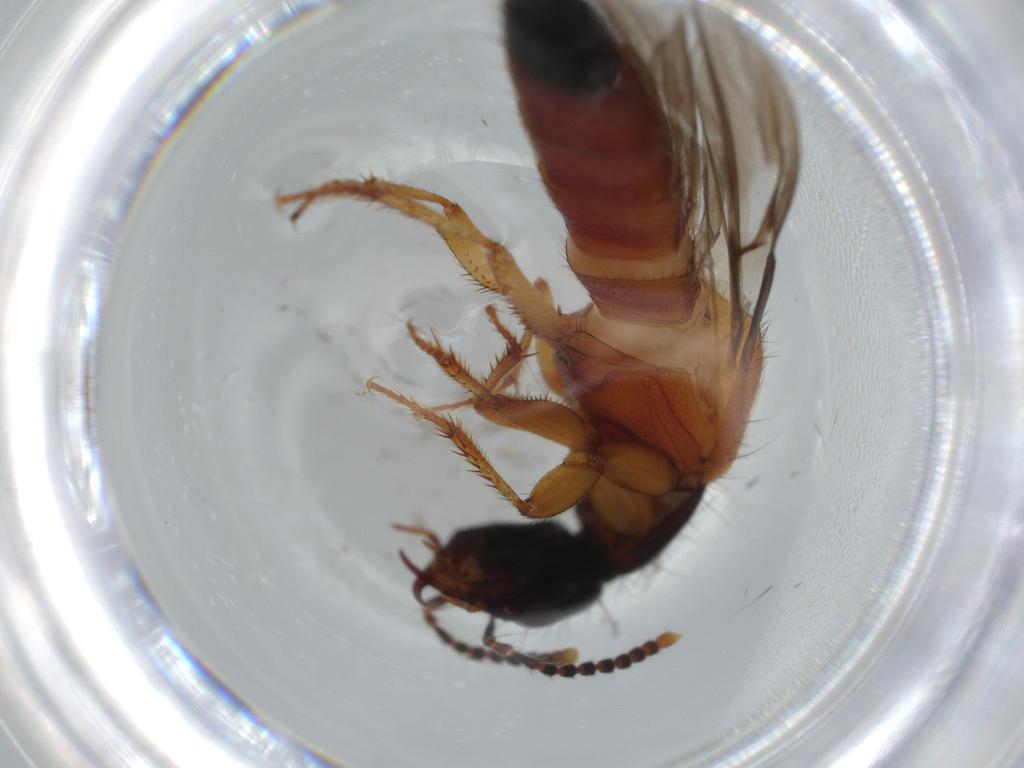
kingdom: Animalia
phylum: Arthropoda
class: Insecta
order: Coleoptera
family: Staphylinidae
